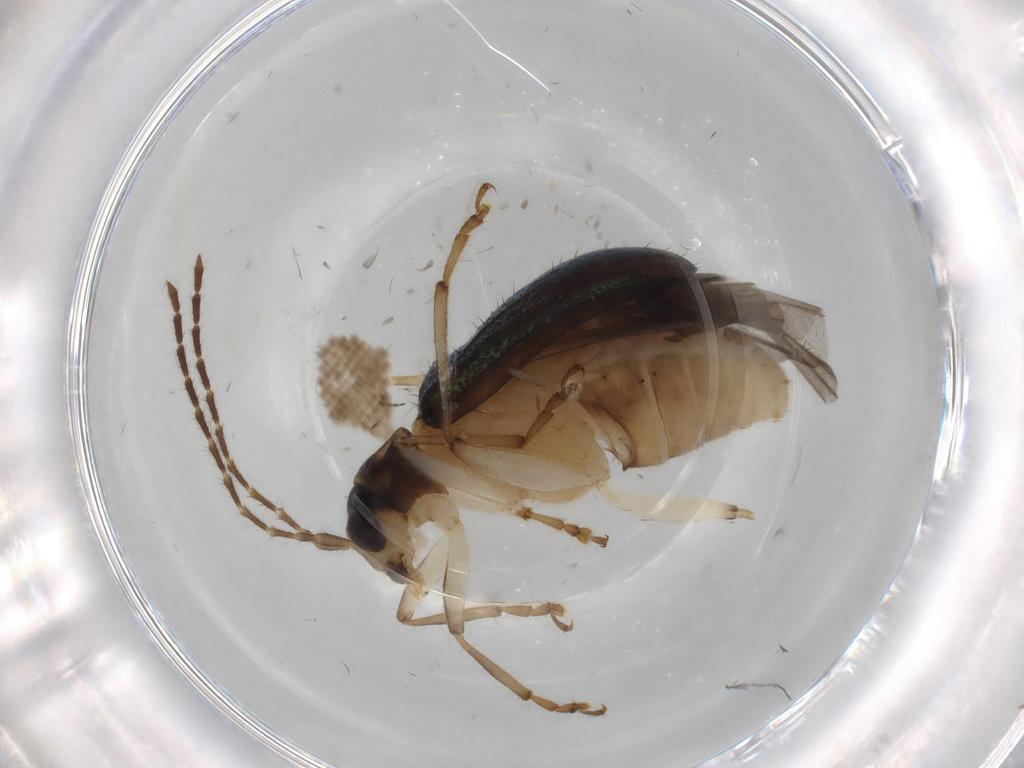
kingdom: Animalia
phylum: Arthropoda
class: Insecta
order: Coleoptera
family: Chrysomelidae
